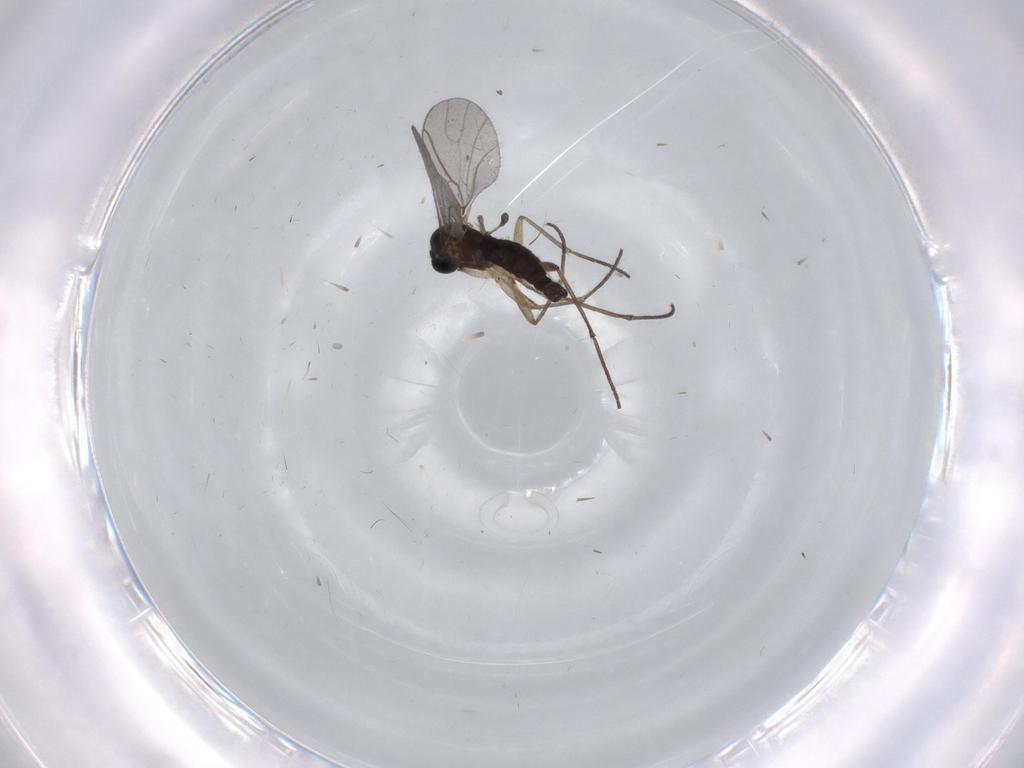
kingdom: Animalia
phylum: Arthropoda
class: Insecta
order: Diptera
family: Sciaridae
